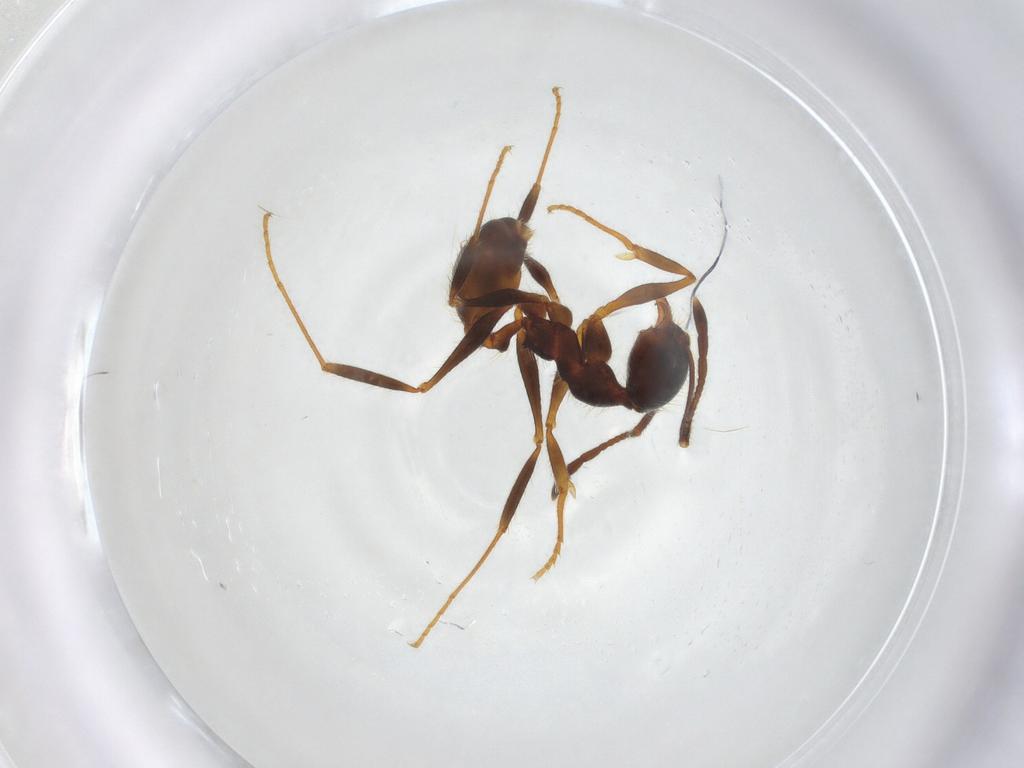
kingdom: Animalia
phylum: Arthropoda
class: Insecta
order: Hymenoptera
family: Formicidae
